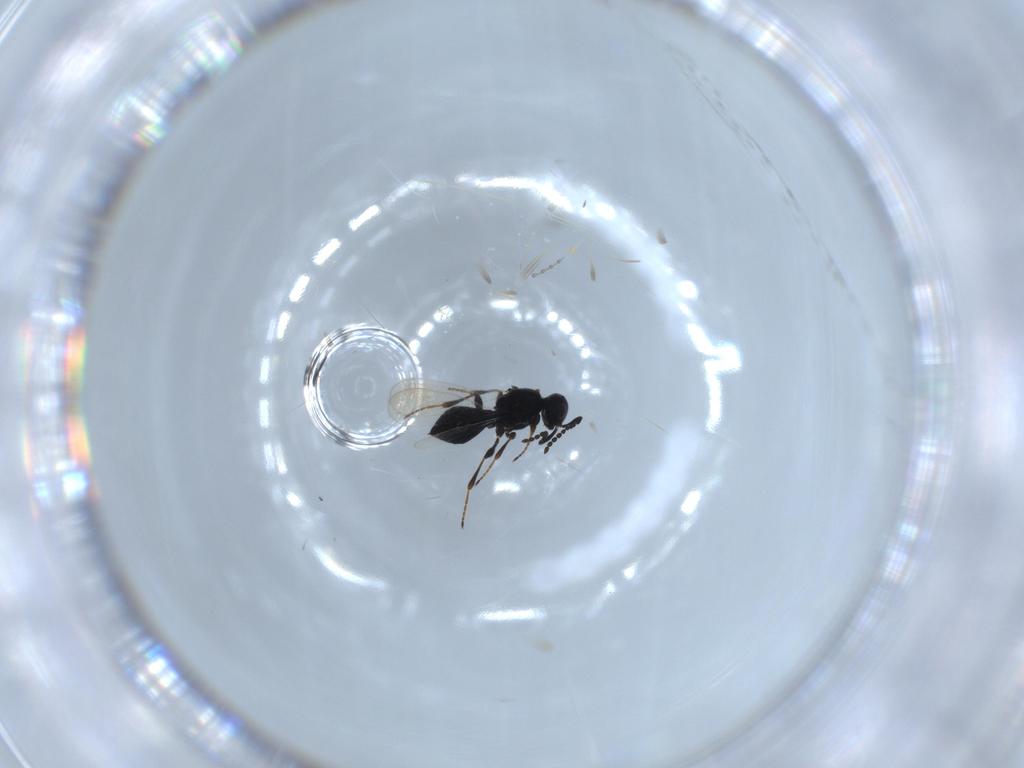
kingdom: Animalia
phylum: Arthropoda
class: Insecta
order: Hymenoptera
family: Platygastridae
